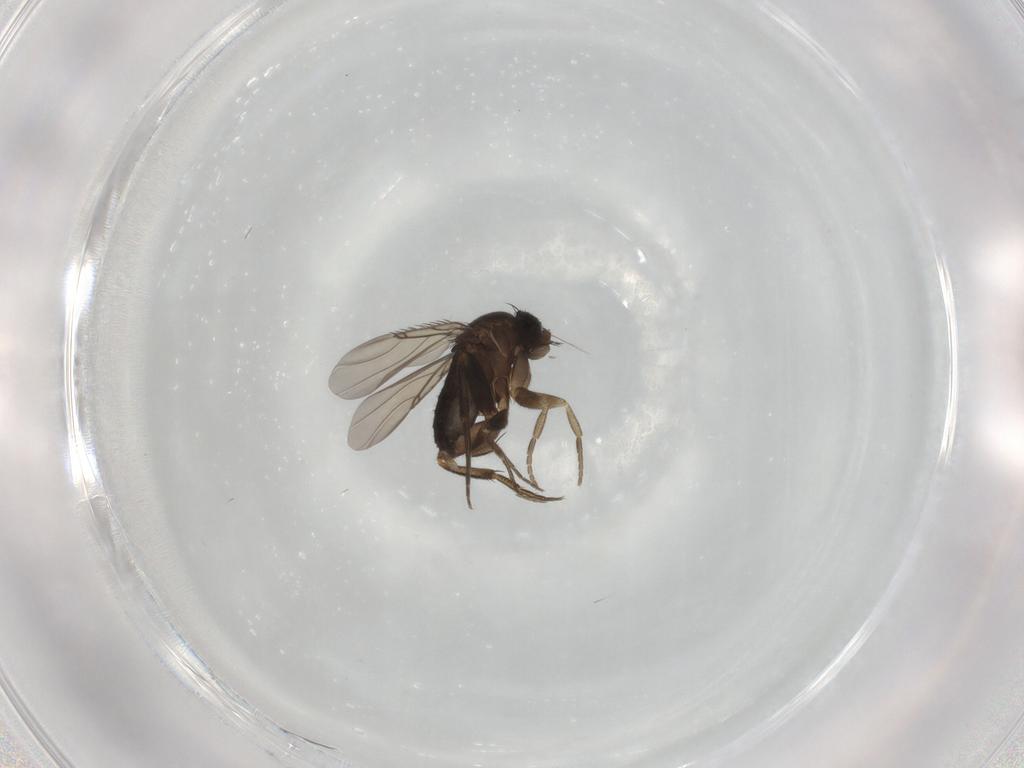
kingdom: Animalia
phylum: Arthropoda
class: Insecta
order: Diptera
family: Phoridae
